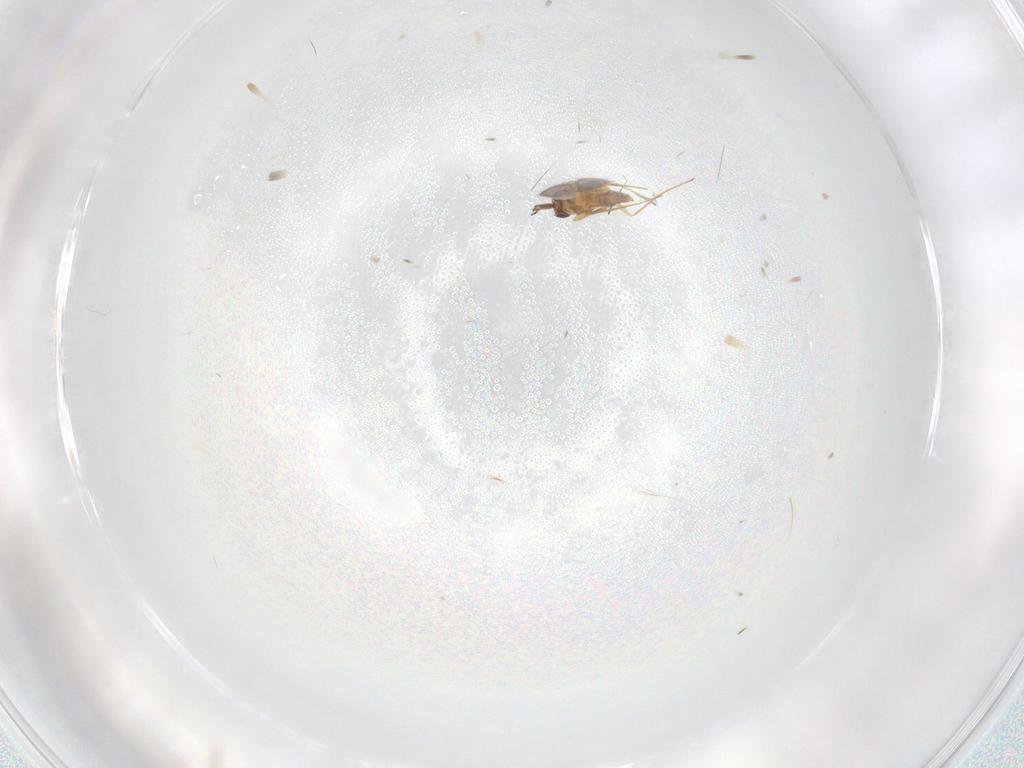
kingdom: Animalia
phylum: Arthropoda
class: Insecta
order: Hymenoptera
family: Mymaridae
